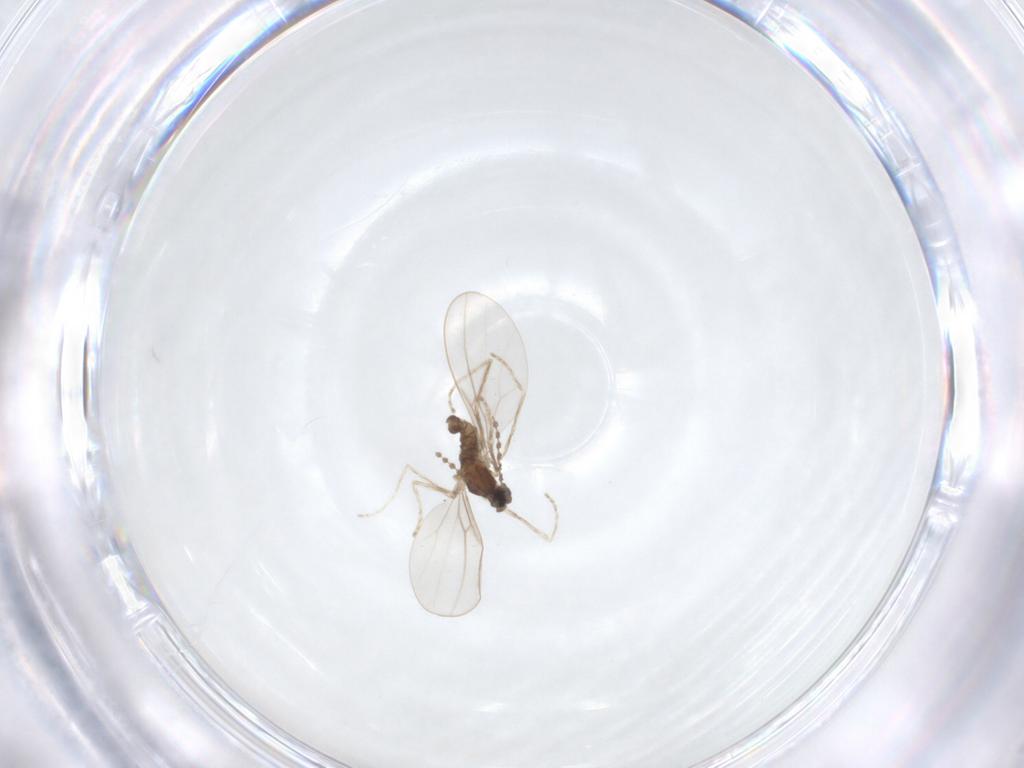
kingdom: Animalia
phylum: Arthropoda
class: Insecta
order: Diptera
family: Cecidomyiidae
